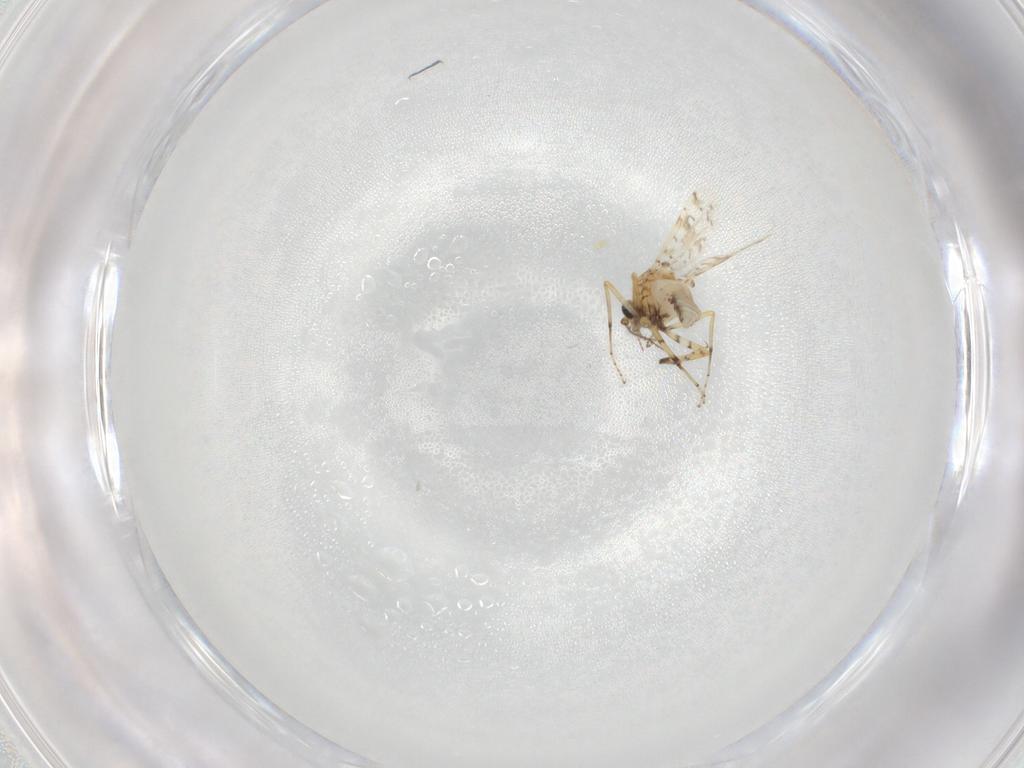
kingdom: Animalia
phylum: Arthropoda
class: Insecta
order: Diptera
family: Ceratopogonidae
